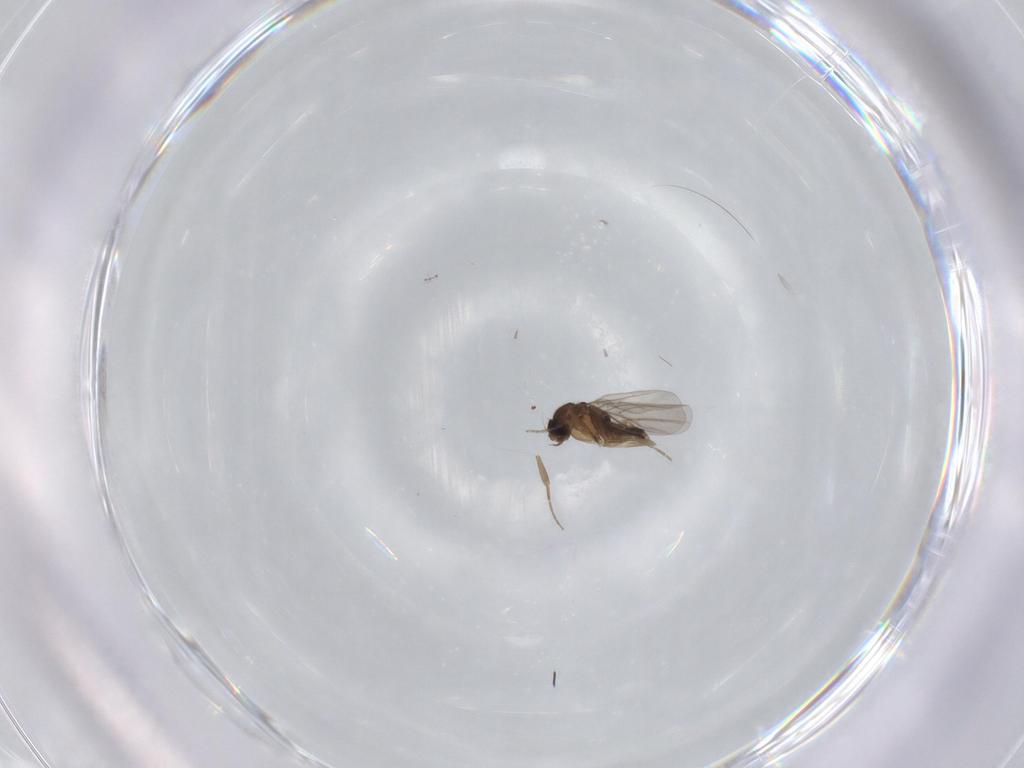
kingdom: Animalia
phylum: Arthropoda
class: Insecta
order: Diptera
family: Phoridae
